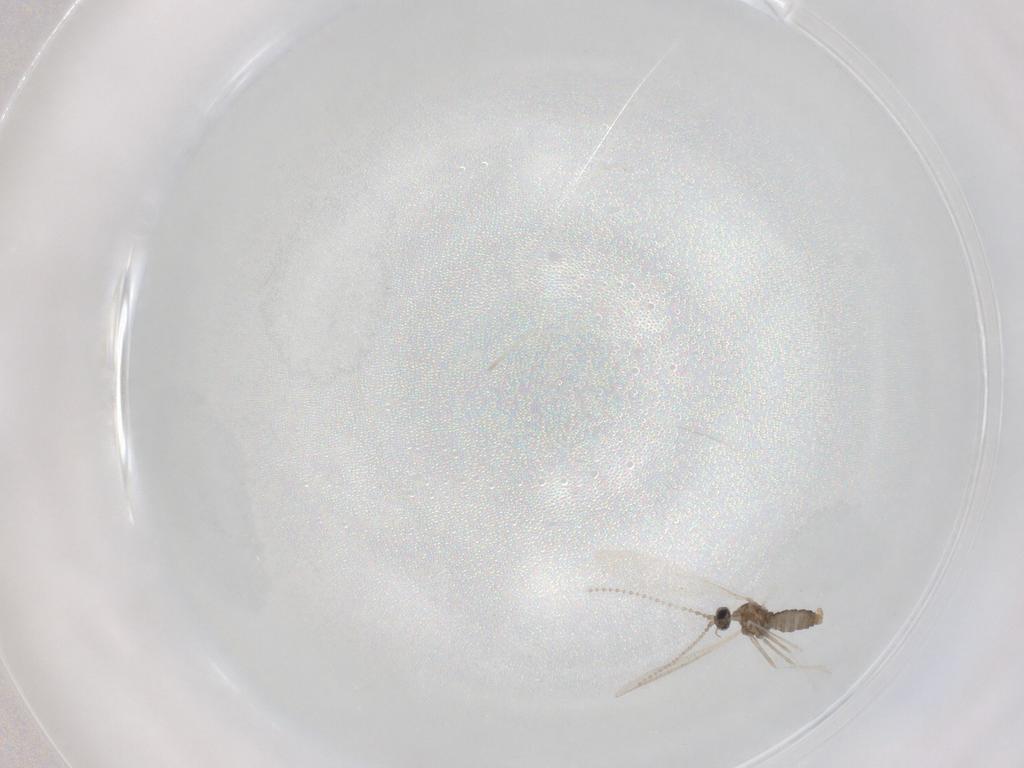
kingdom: Animalia
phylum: Arthropoda
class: Insecta
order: Diptera
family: Chironomidae
